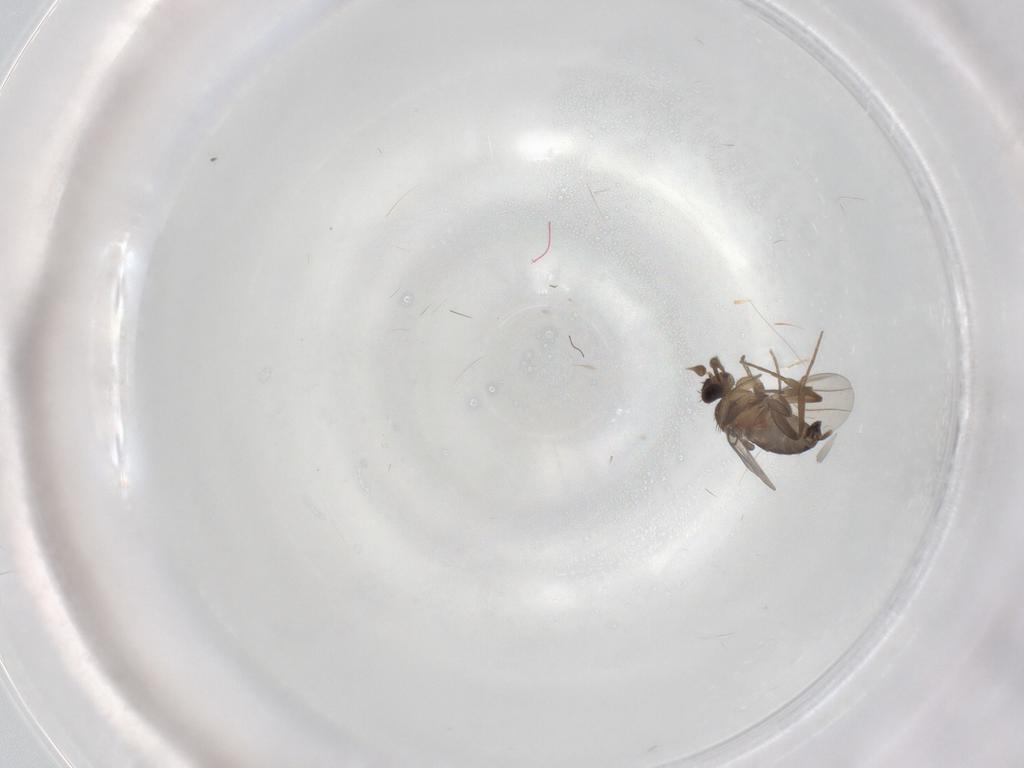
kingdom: Animalia
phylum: Arthropoda
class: Insecta
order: Diptera
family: Phoridae
